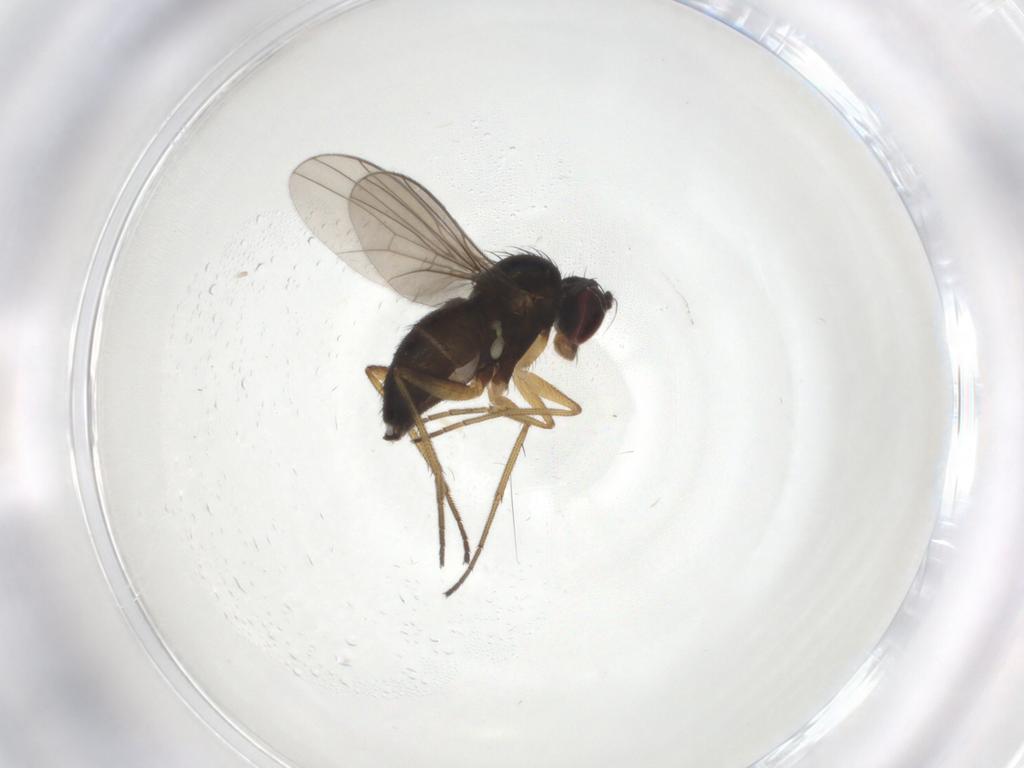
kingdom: Animalia
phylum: Arthropoda
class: Insecta
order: Diptera
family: Dolichopodidae
